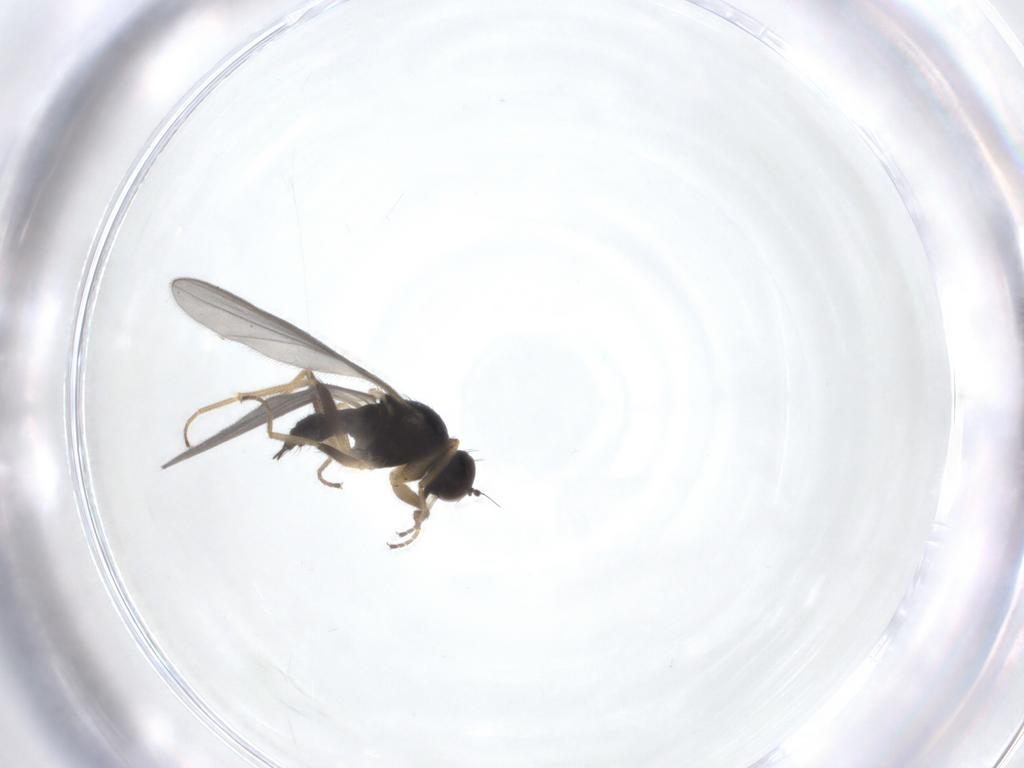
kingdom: Animalia
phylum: Arthropoda
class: Insecta
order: Diptera
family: Hybotidae
